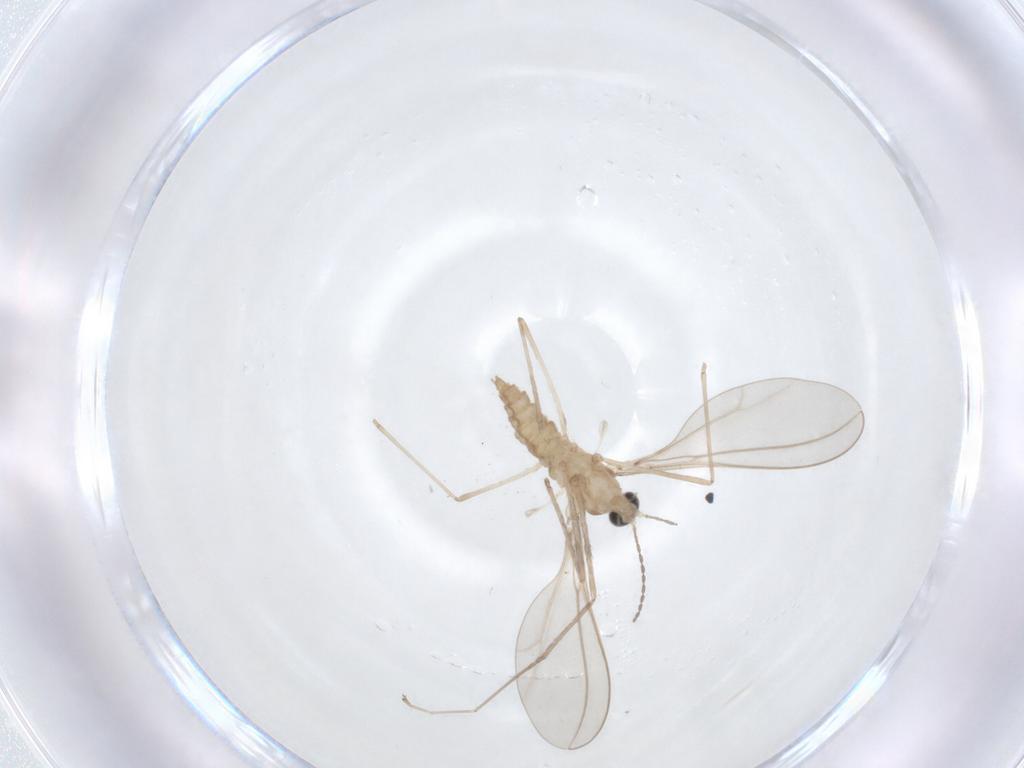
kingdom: Animalia
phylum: Arthropoda
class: Insecta
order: Diptera
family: Cecidomyiidae
